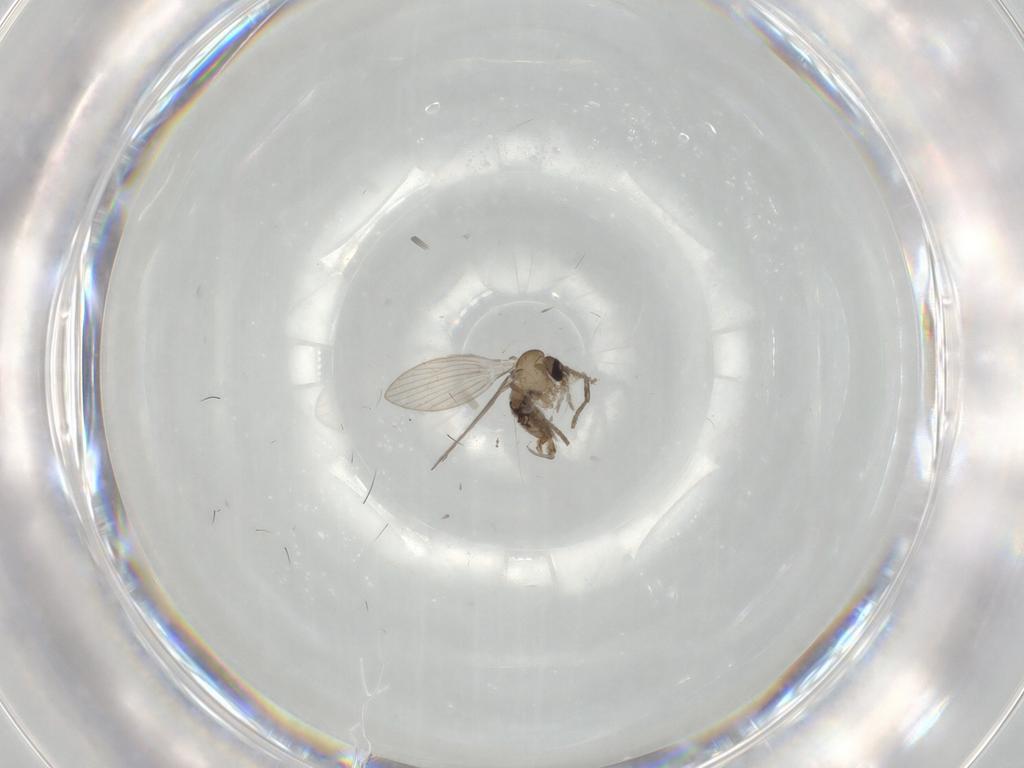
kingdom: Animalia
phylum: Arthropoda
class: Insecta
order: Diptera
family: Psychodidae
